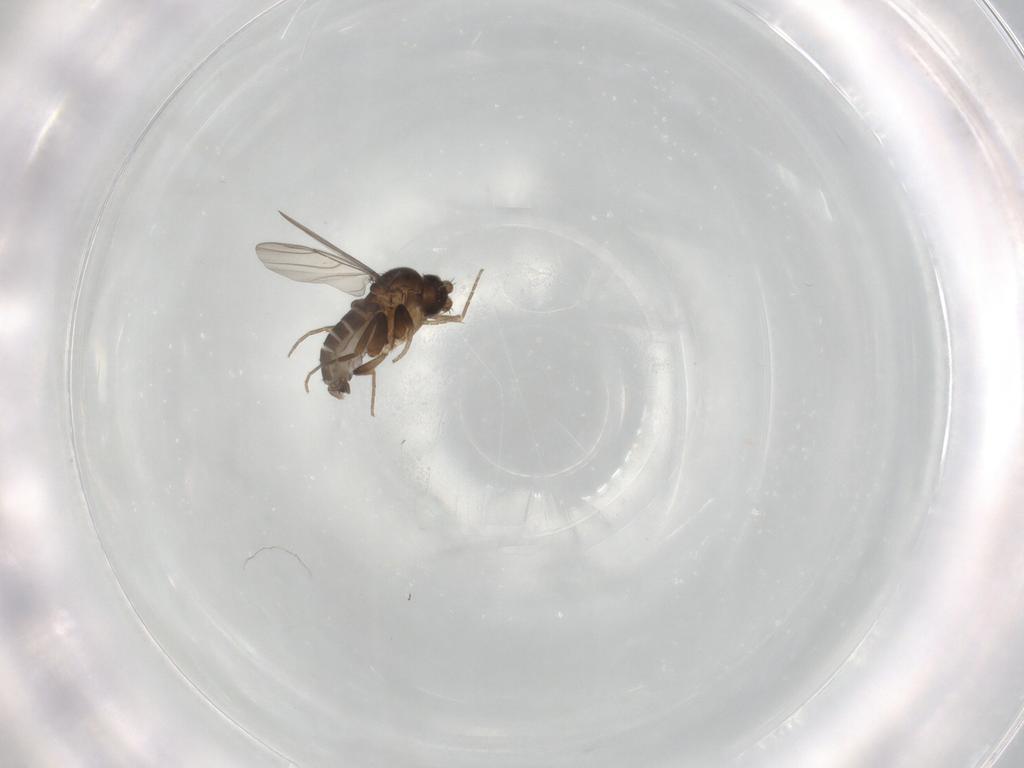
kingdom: Animalia
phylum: Arthropoda
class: Insecta
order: Diptera
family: Phoridae
